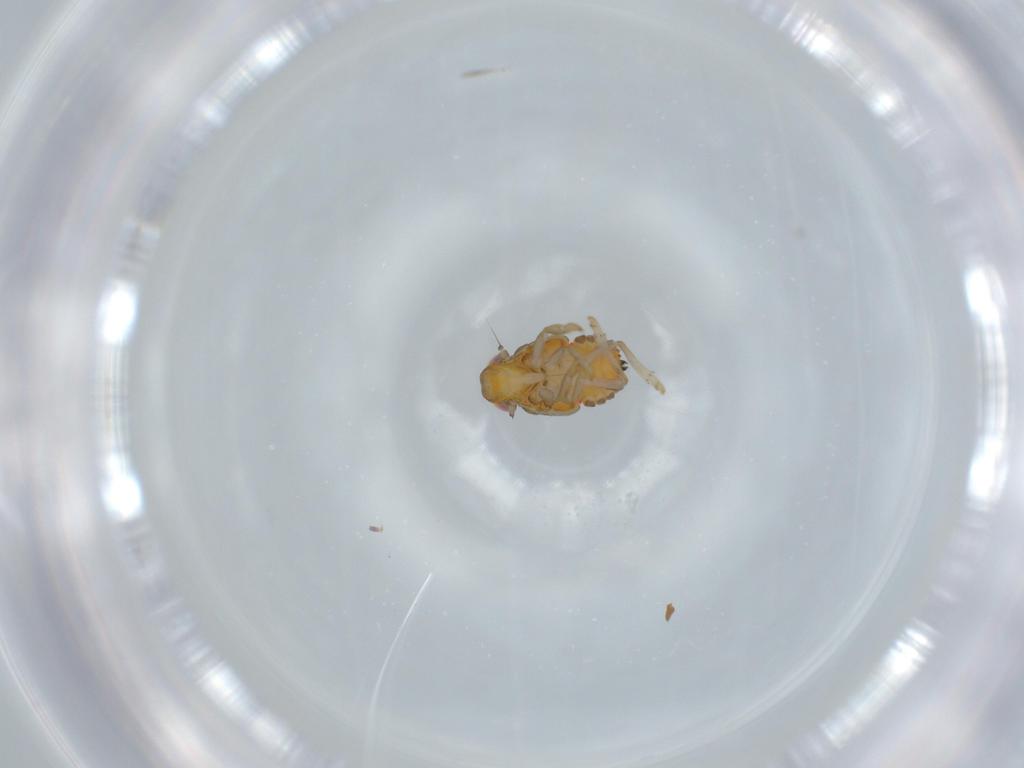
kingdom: Animalia
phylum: Arthropoda
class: Insecta
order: Hemiptera
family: Issidae
